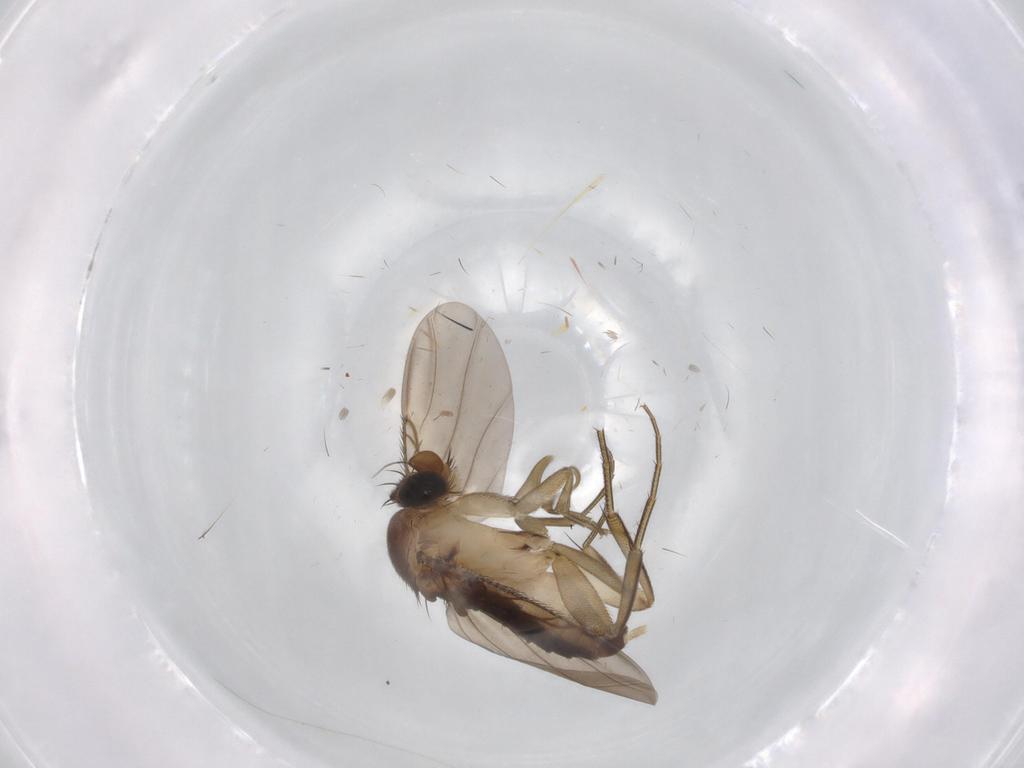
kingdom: Animalia
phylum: Arthropoda
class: Insecta
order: Diptera
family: Phoridae
